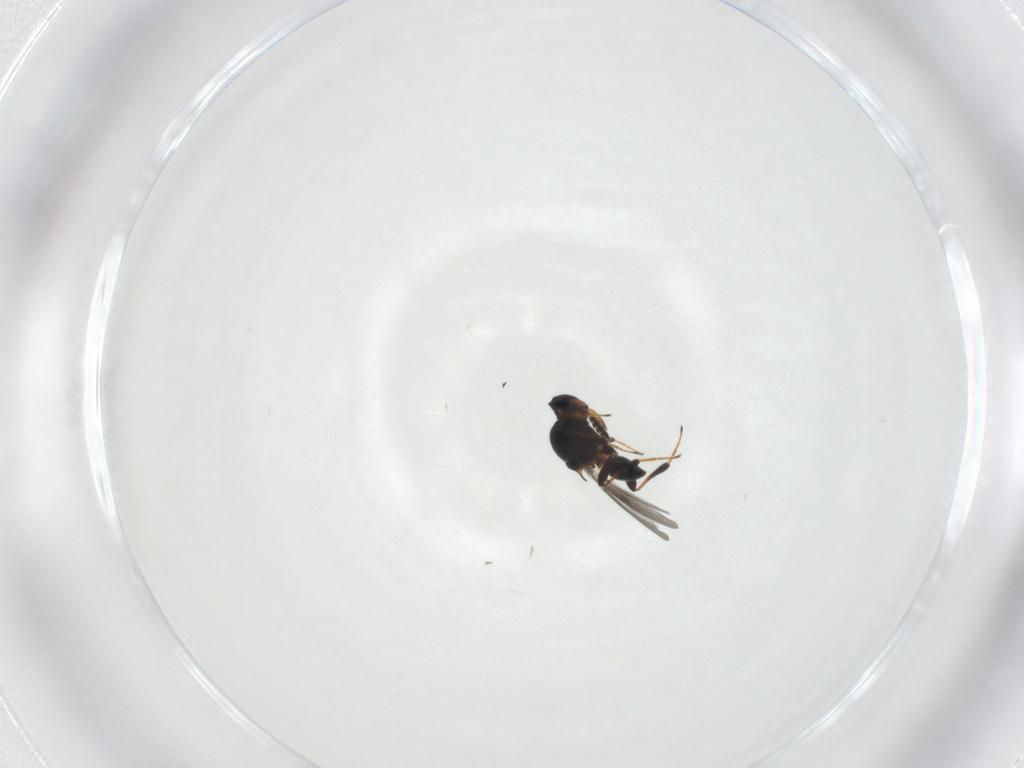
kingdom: Animalia
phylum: Arthropoda
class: Insecta
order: Hymenoptera
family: Platygastridae
